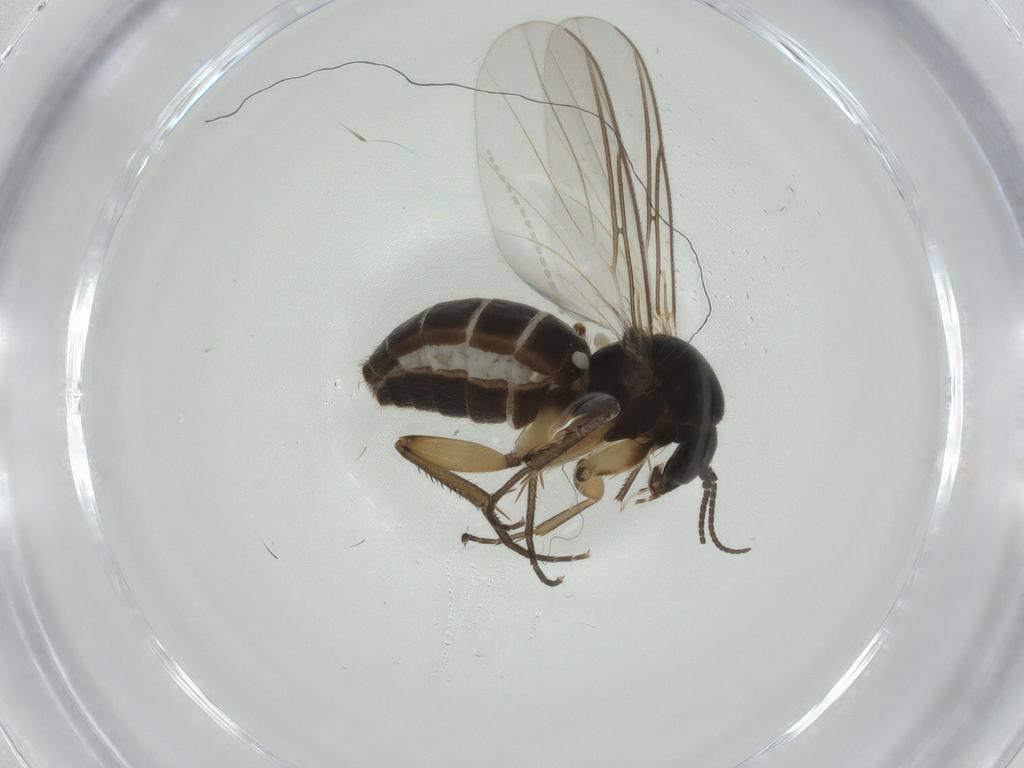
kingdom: Animalia
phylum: Arthropoda
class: Insecta
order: Diptera
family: Mycetophilidae
